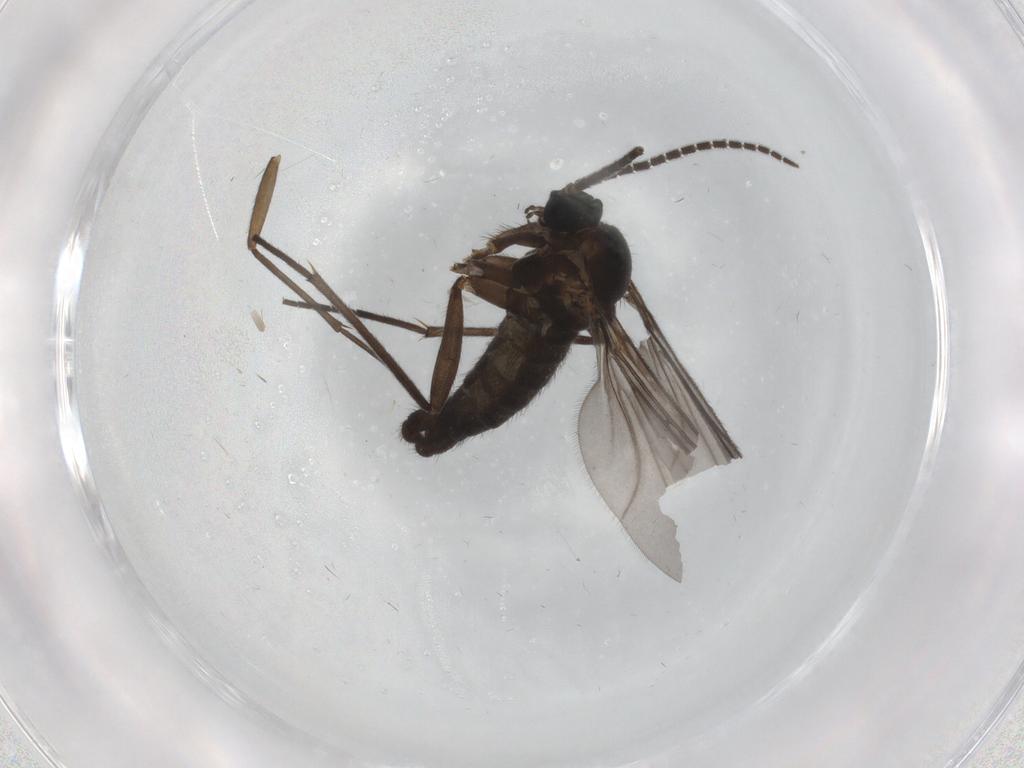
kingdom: Animalia
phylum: Arthropoda
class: Insecta
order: Diptera
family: Sciaridae
